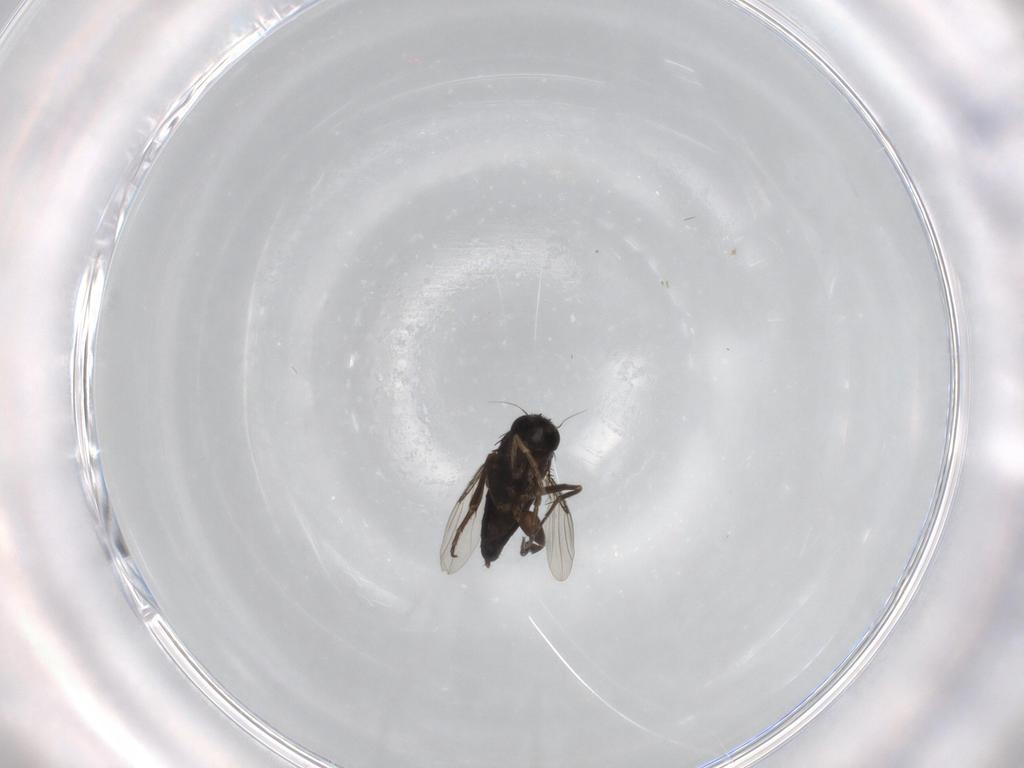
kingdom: Animalia
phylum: Arthropoda
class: Insecta
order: Diptera
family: Phoridae
